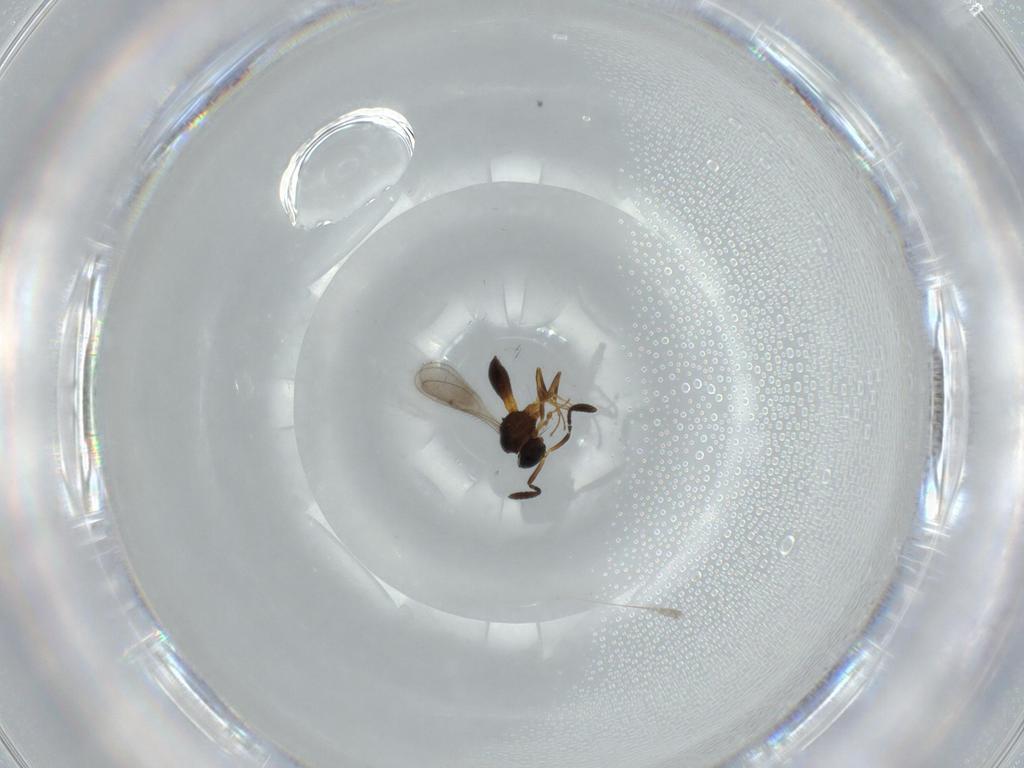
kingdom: Animalia
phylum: Arthropoda
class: Insecta
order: Hymenoptera
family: Scelionidae
